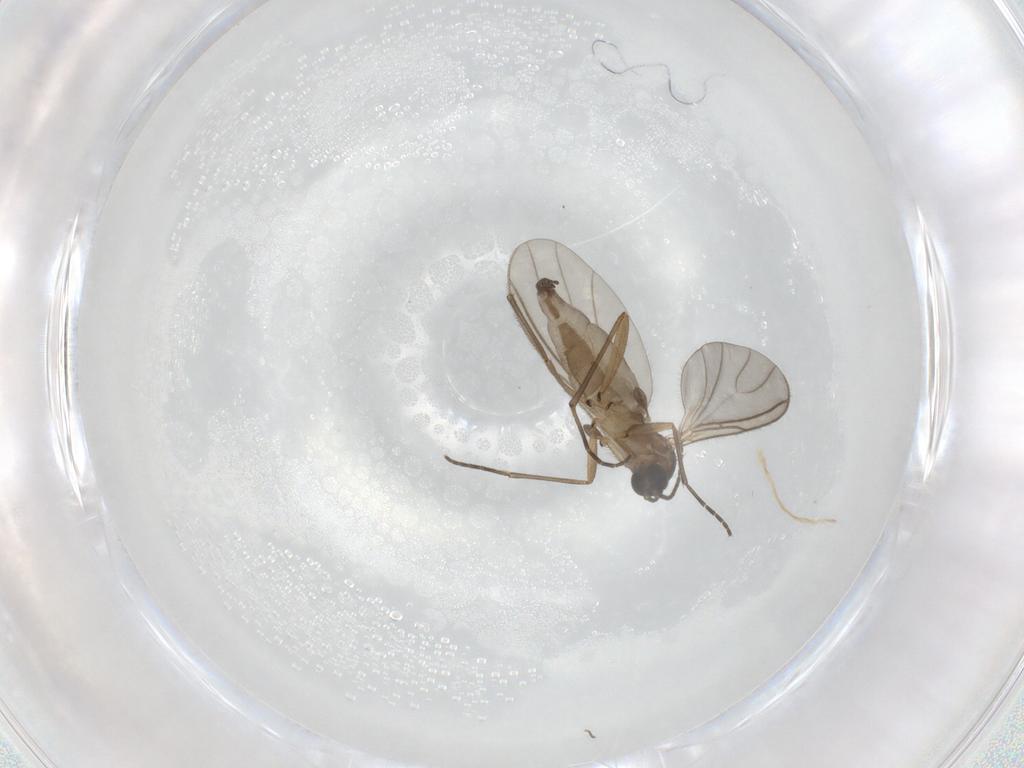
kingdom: Animalia
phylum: Arthropoda
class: Insecta
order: Diptera
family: Sciaridae
